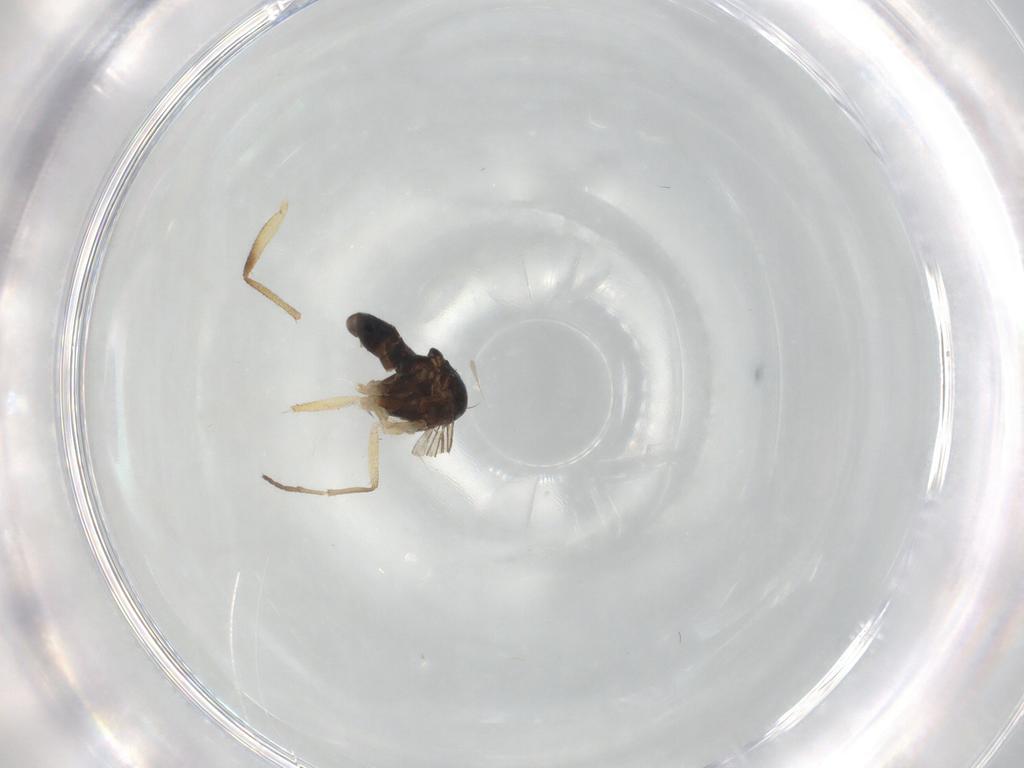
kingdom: Animalia
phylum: Arthropoda
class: Insecta
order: Diptera
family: Dolichopodidae
